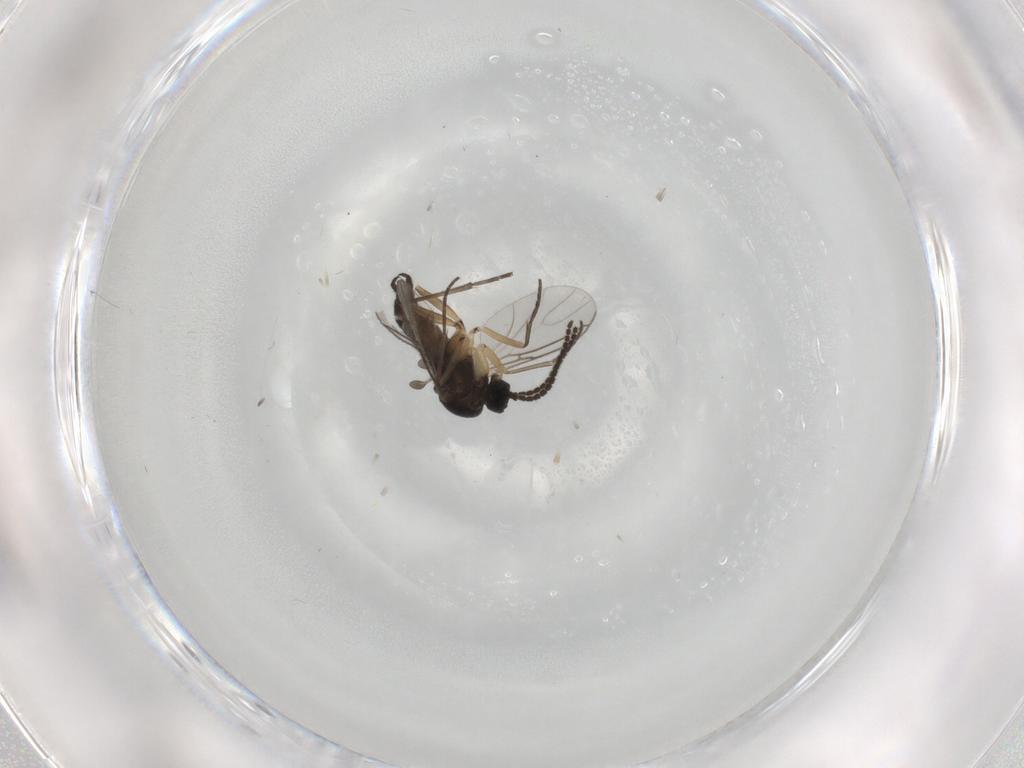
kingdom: Animalia
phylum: Arthropoda
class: Insecta
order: Diptera
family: Sciaridae
